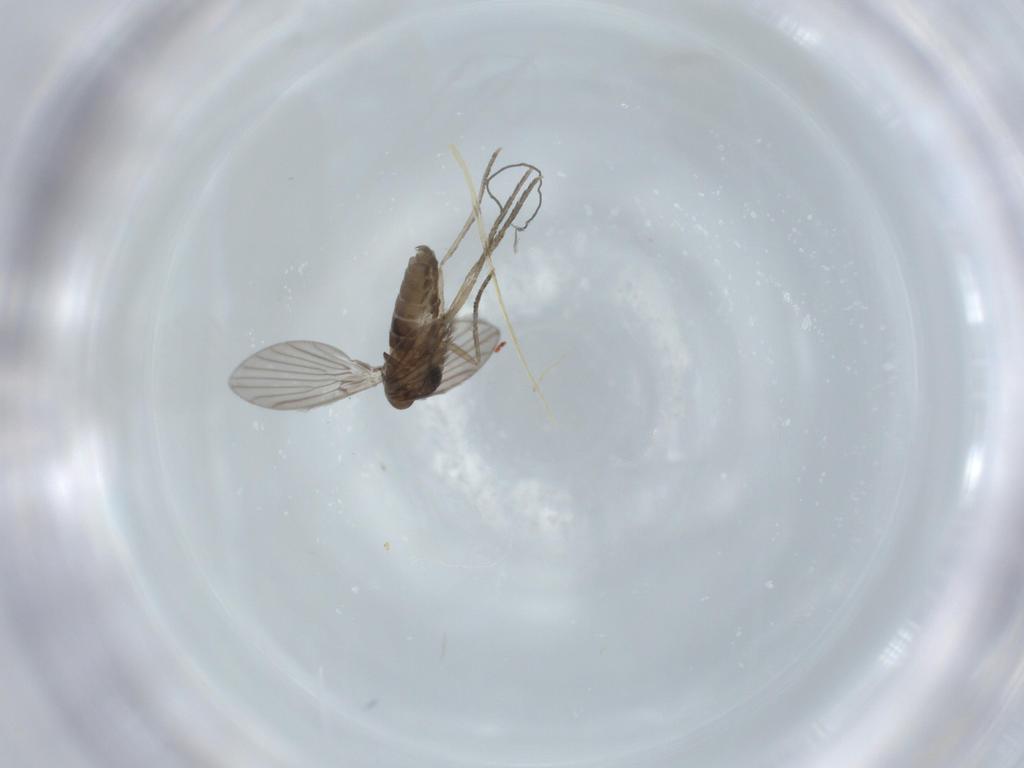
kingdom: Animalia
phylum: Arthropoda
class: Insecta
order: Diptera
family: Psychodidae
